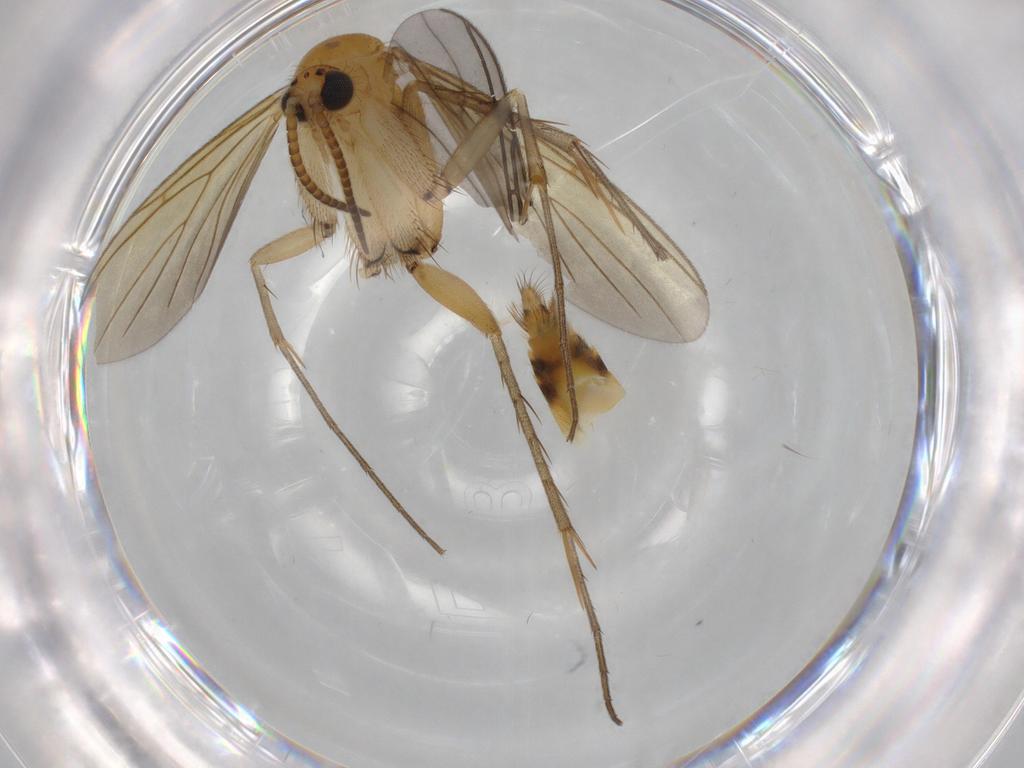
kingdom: Animalia
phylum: Arthropoda
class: Insecta
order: Diptera
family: Mycetophilidae
